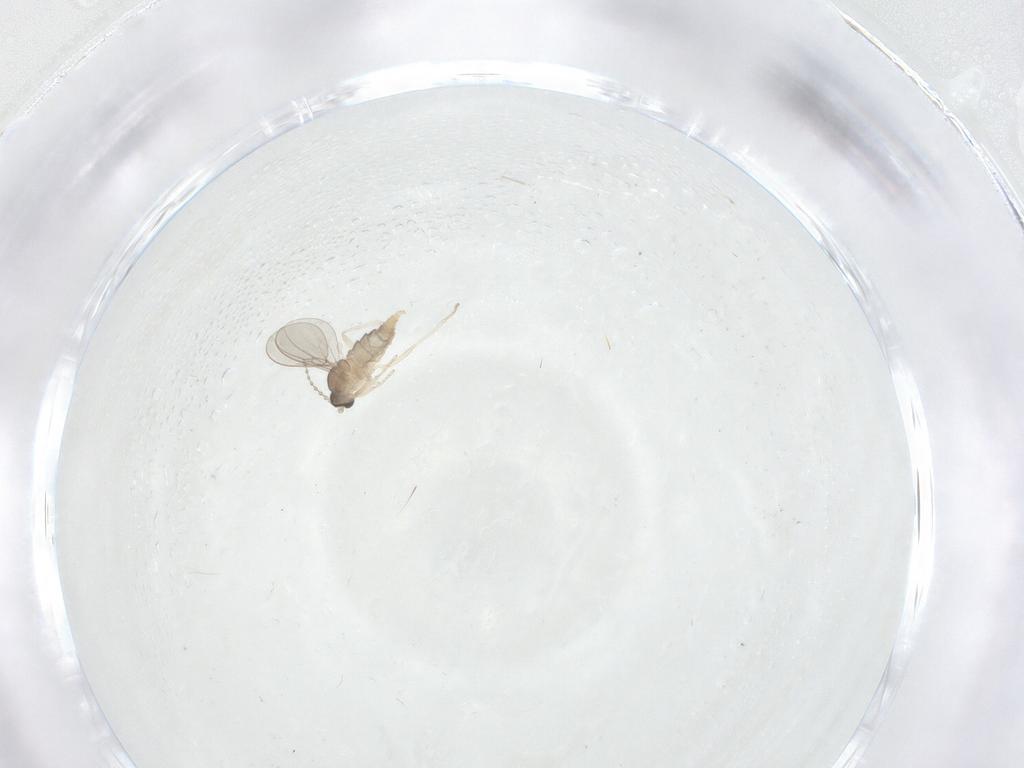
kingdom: Animalia
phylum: Arthropoda
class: Insecta
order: Diptera
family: Cecidomyiidae
